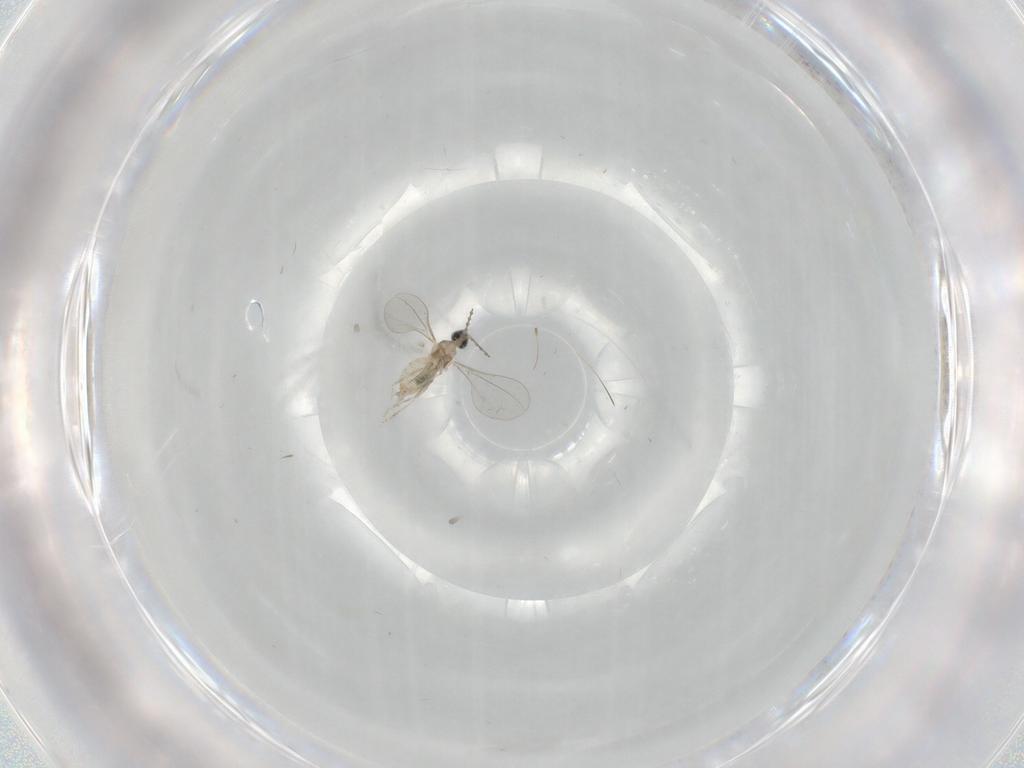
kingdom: Animalia
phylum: Arthropoda
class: Insecta
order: Diptera
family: Cecidomyiidae
